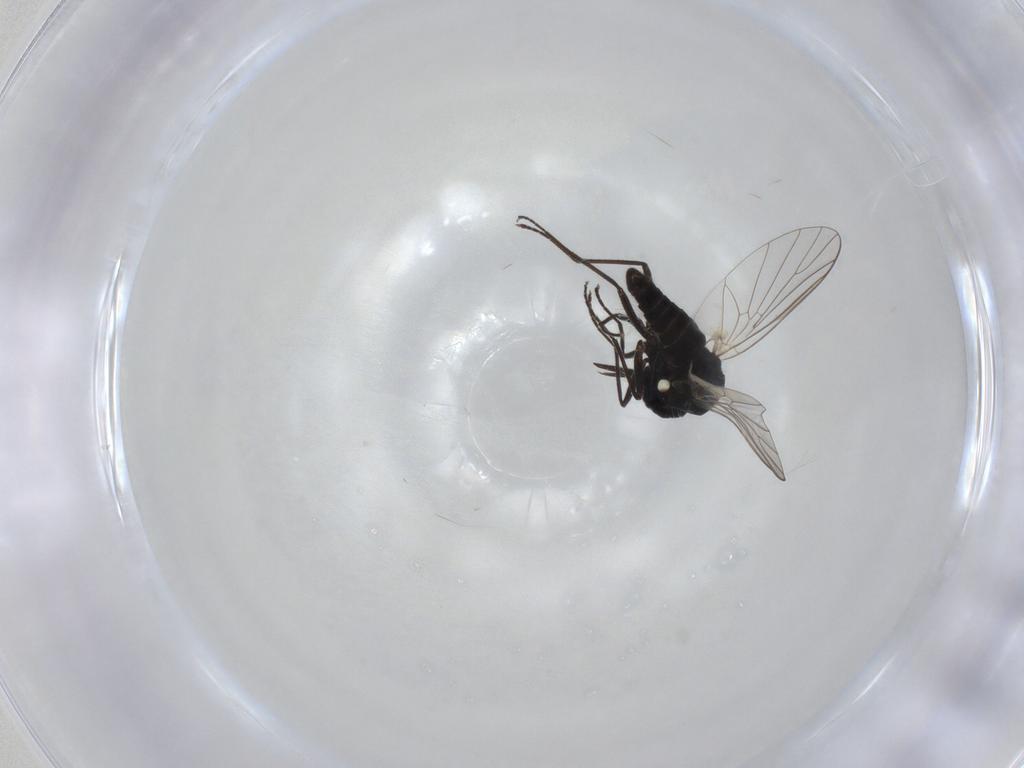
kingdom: Animalia
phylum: Arthropoda
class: Insecta
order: Diptera
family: Bombyliidae
